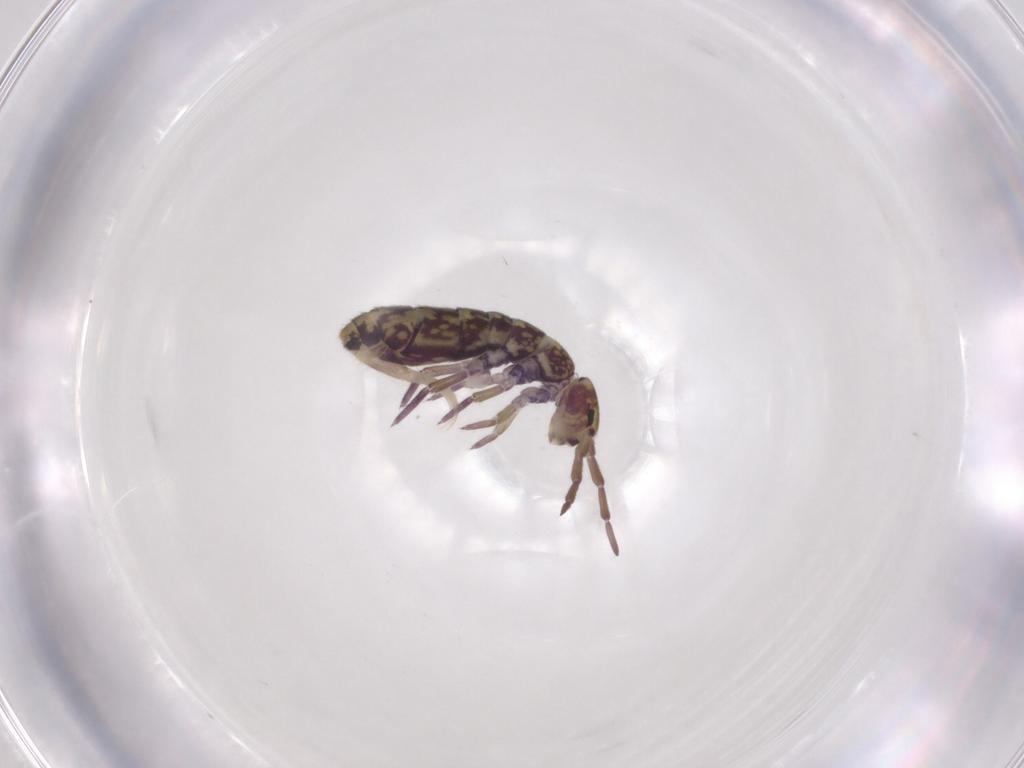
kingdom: Animalia
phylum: Arthropoda
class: Collembola
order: Entomobryomorpha
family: Isotomidae
